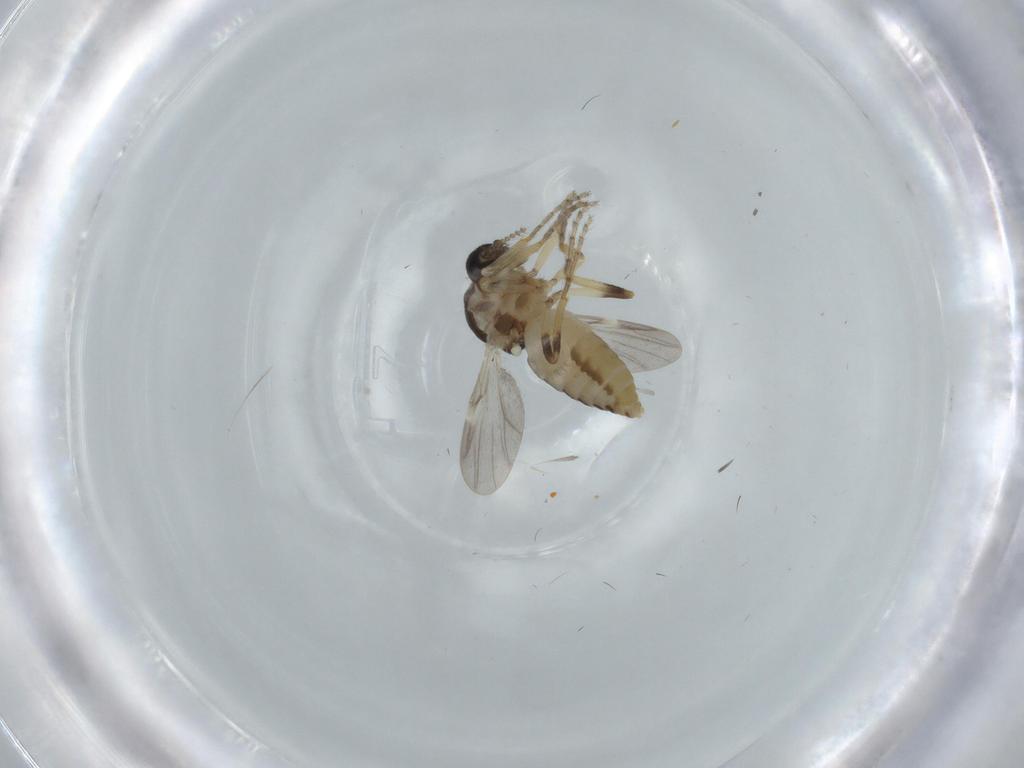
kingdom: Animalia
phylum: Arthropoda
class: Insecta
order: Diptera
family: Ceratopogonidae
